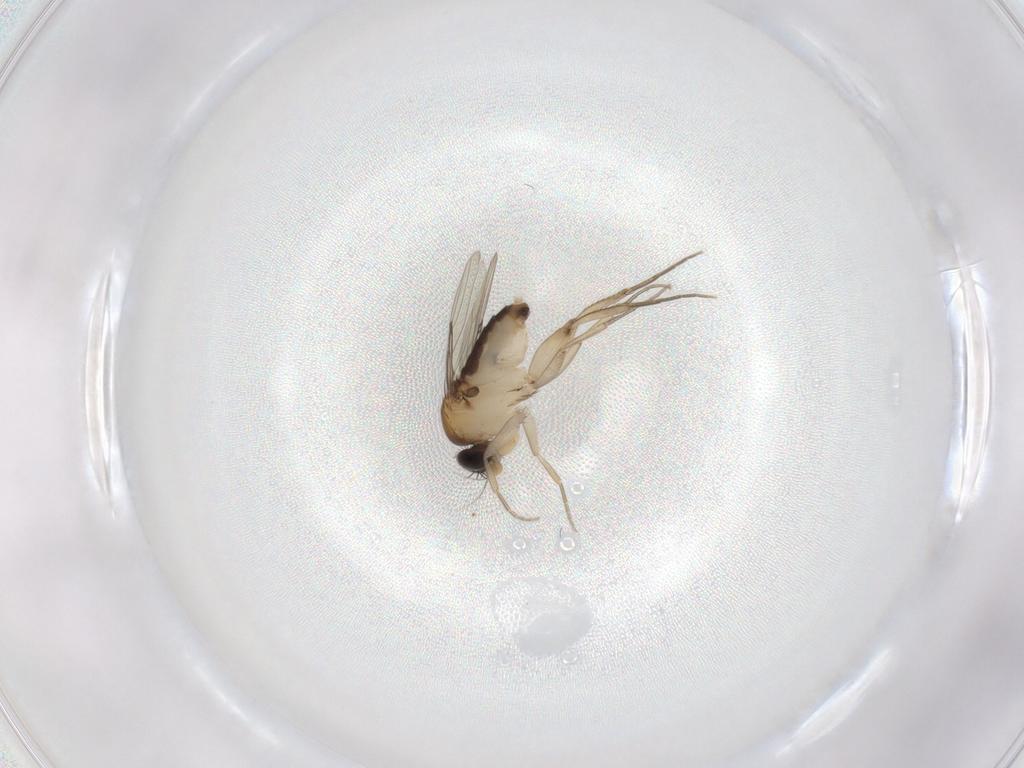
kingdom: Animalia
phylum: Arthropoda
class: Insecta
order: Diptera
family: Phoridae
